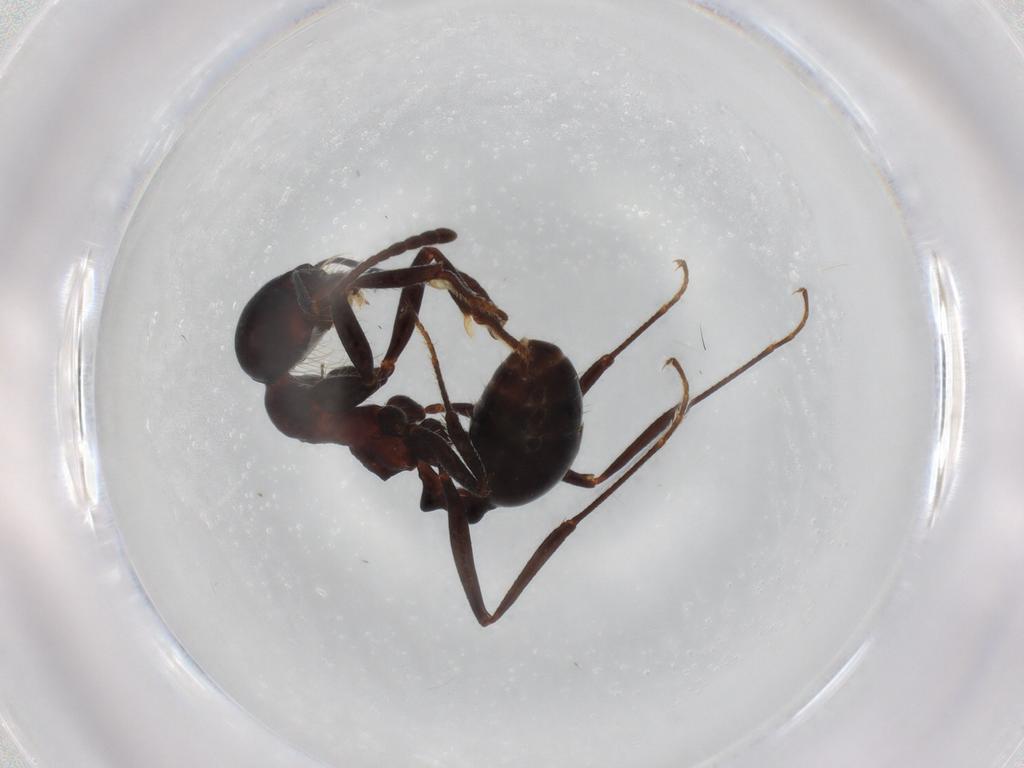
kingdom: Animalia
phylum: Arthropoda
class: Insecta
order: Hymenoptera
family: Formicidae
